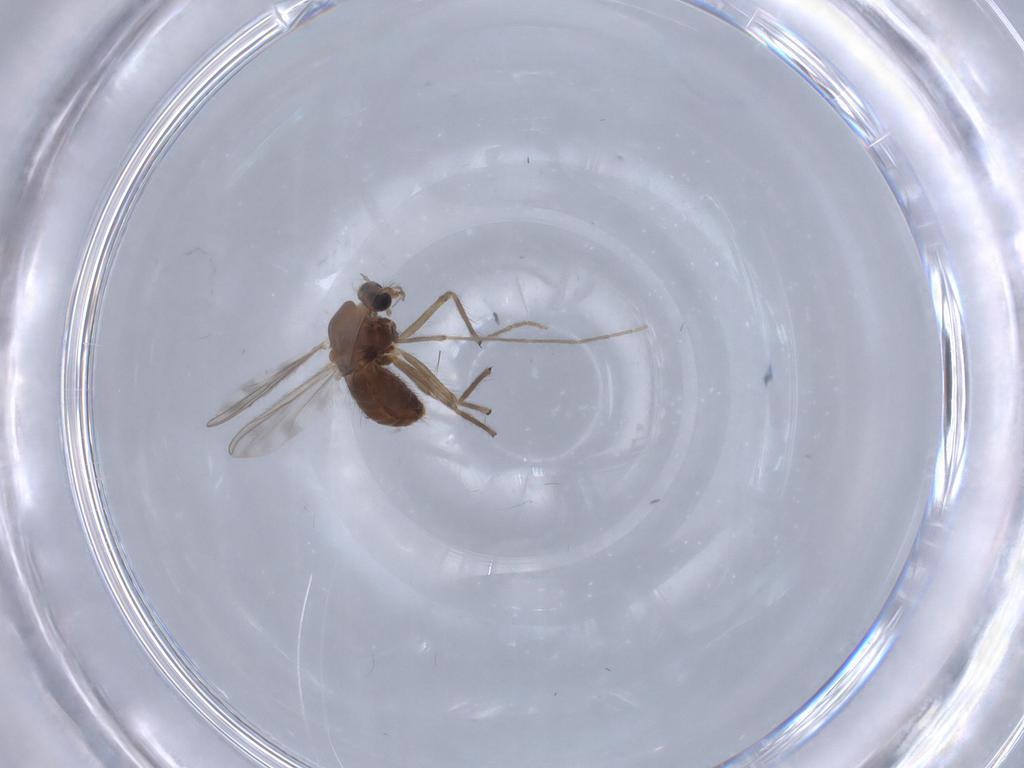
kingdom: Animalia
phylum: Arthropoda
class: Insecta
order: Diptera
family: Chironomidae
